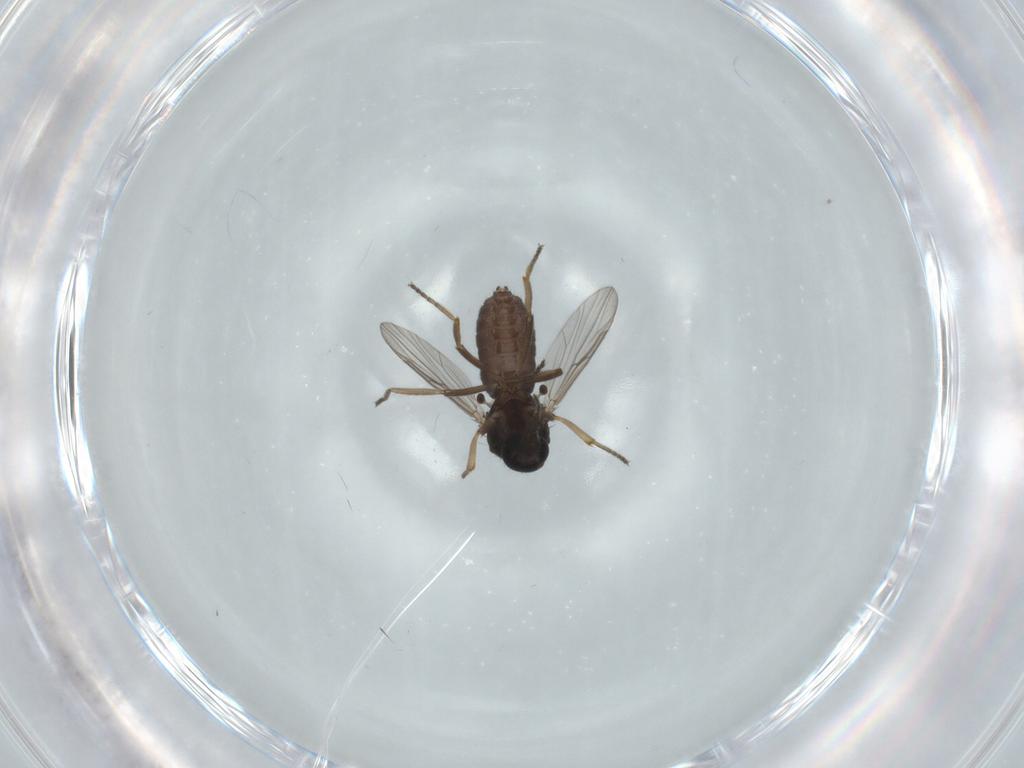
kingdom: Animalia
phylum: Arthropoda
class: Insecta
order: Diptera
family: Ceratopogonidae
